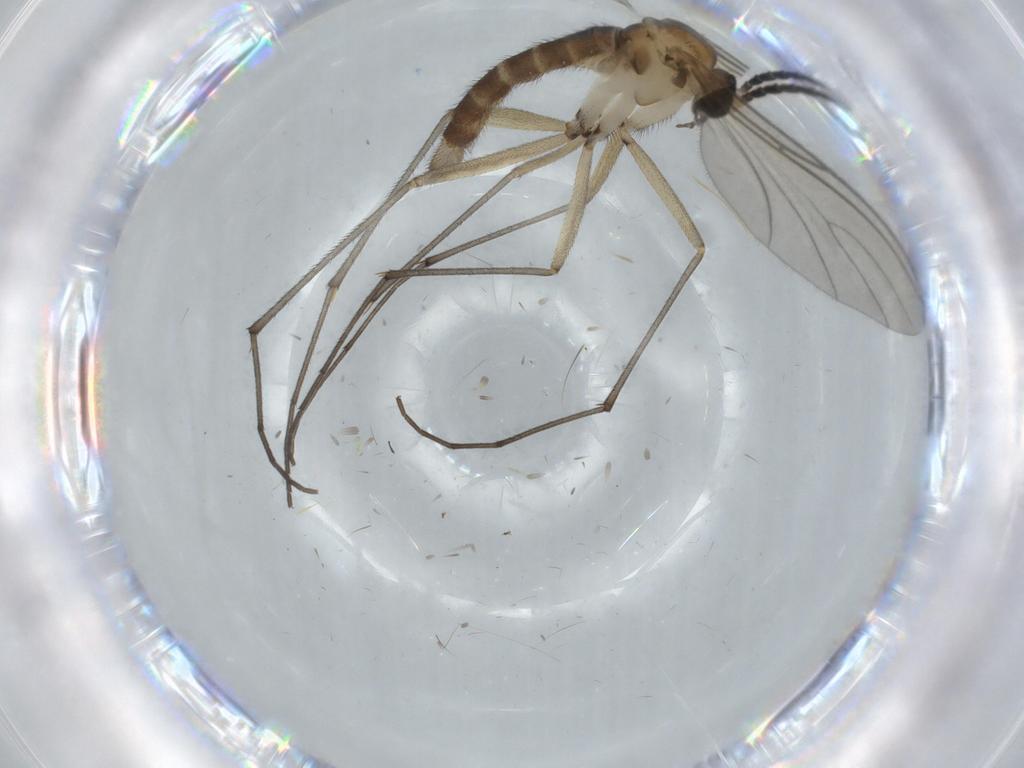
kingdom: Animalia
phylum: Arthropoda
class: Insecta
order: Diptera
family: Sciaridae
